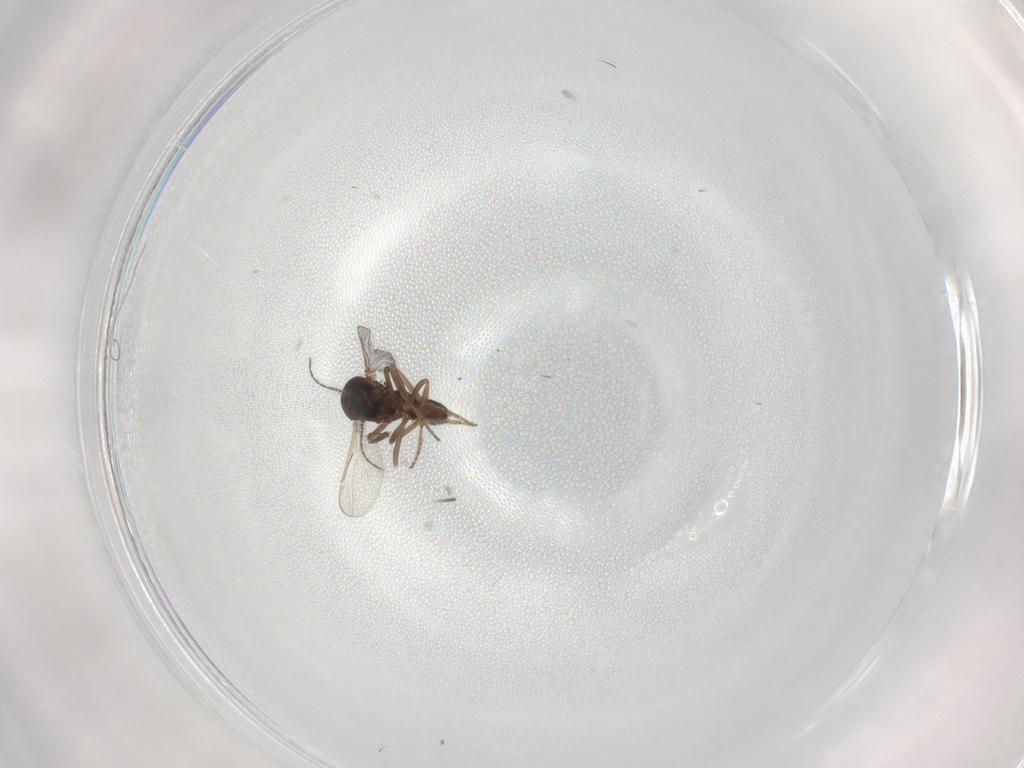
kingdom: Animalia
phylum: Arthropoda
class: Insecta
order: Diptera
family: Ceratopogonidae
